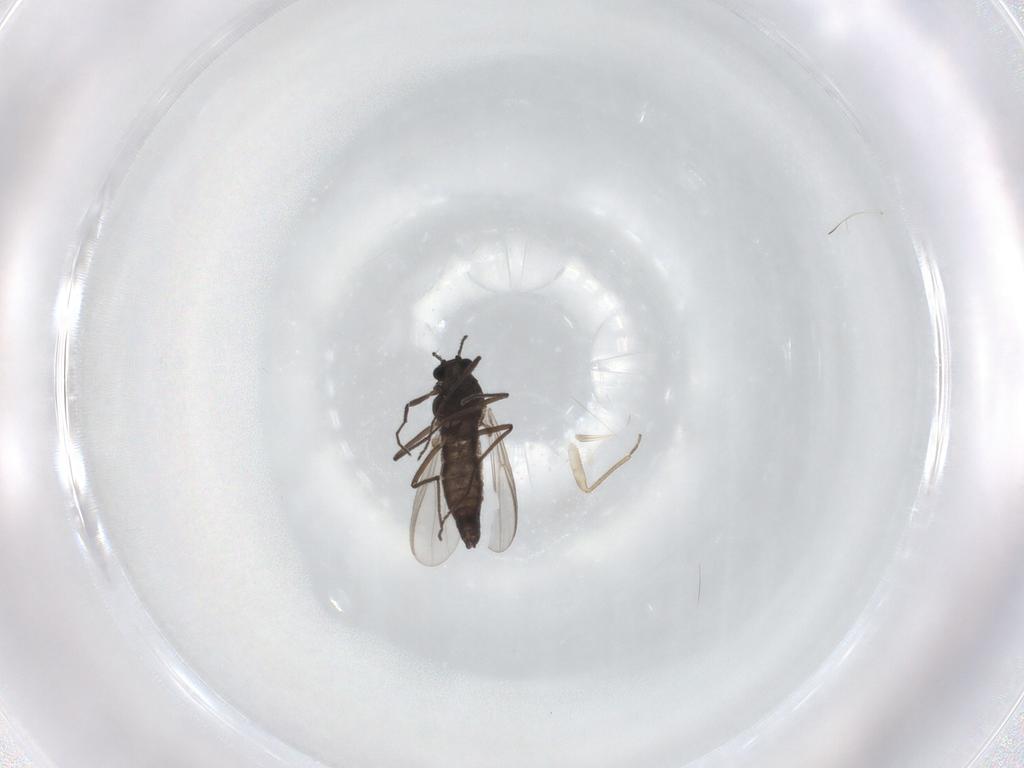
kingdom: Animalia
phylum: Arthropoda
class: Insecta
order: Diptera
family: Chironomidae
